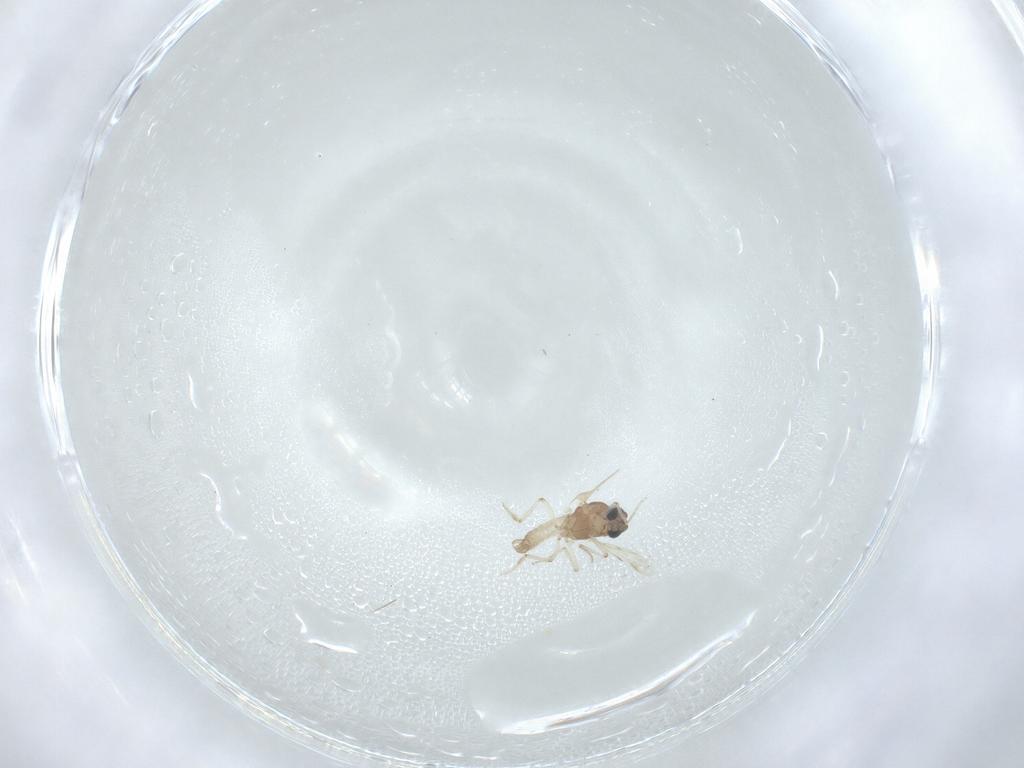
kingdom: Animalia
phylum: Arthropoda
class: Insecta
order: Diptera
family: Ceratopogonidae
